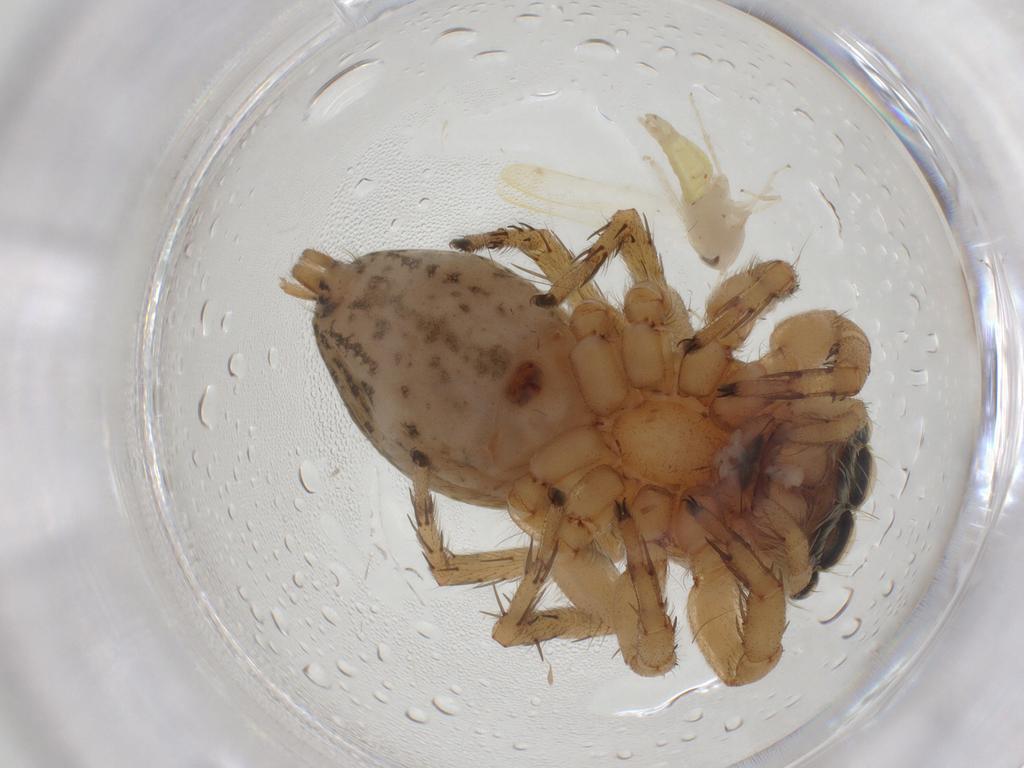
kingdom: Animalia
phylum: Arthropoda
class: Insecta
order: Hemiptera
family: Cicadellidae
